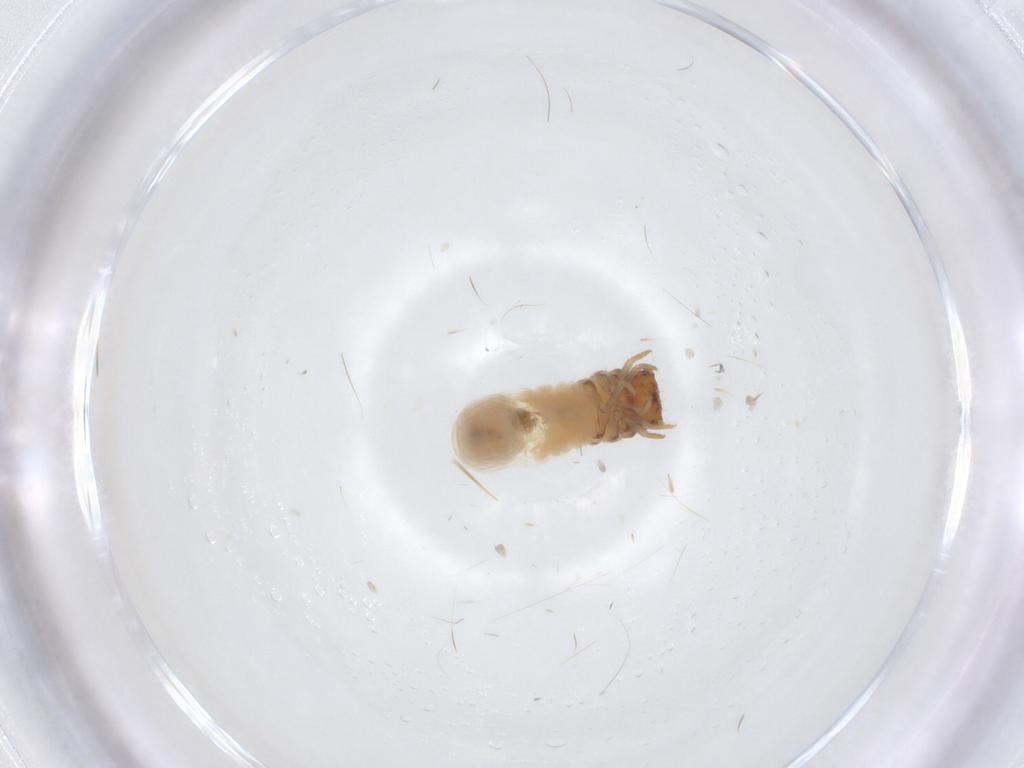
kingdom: Animalia
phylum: Arthropoda
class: Insecta
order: Coleoptera
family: Chrysomelidae
